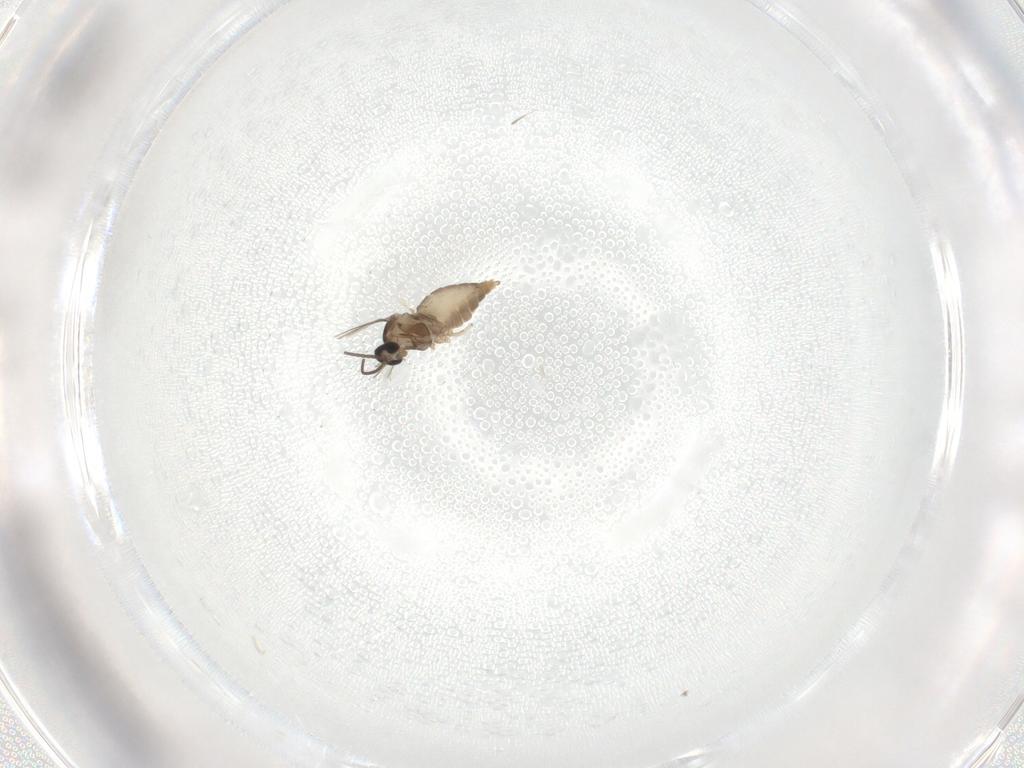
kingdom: Animalia
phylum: Arthropoda
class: Insecta
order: Diptera
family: Cecidomyiidae
